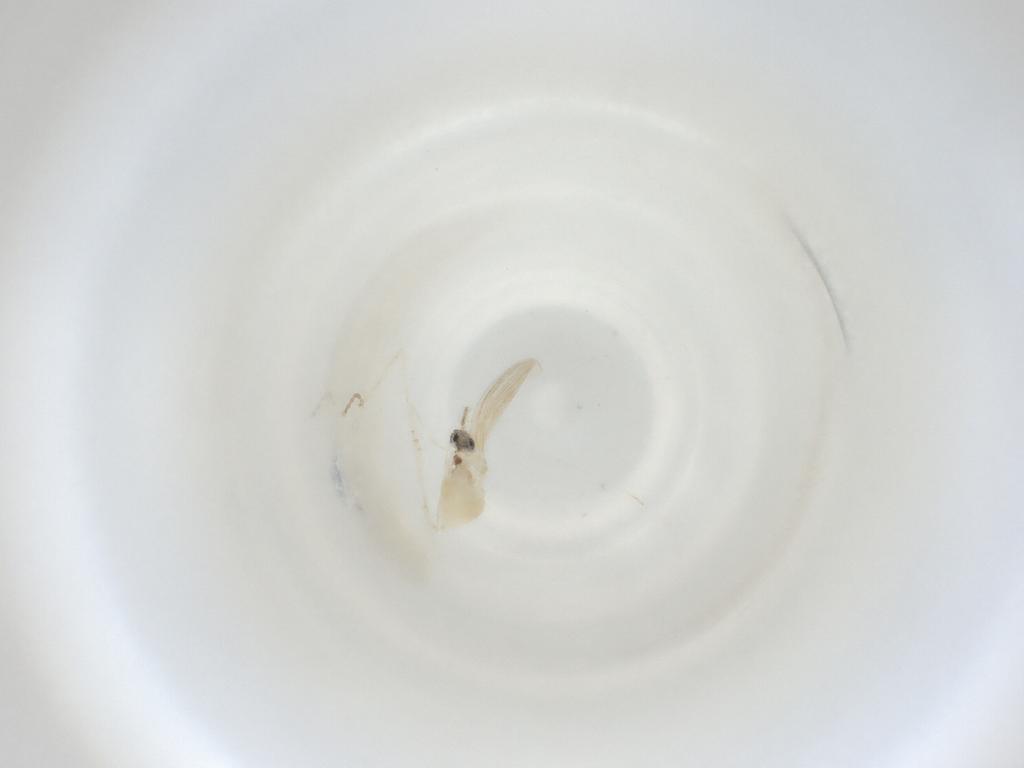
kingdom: Animalia
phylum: Arthropoda
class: Insecta
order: Diptera
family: Cecidomyiidae
